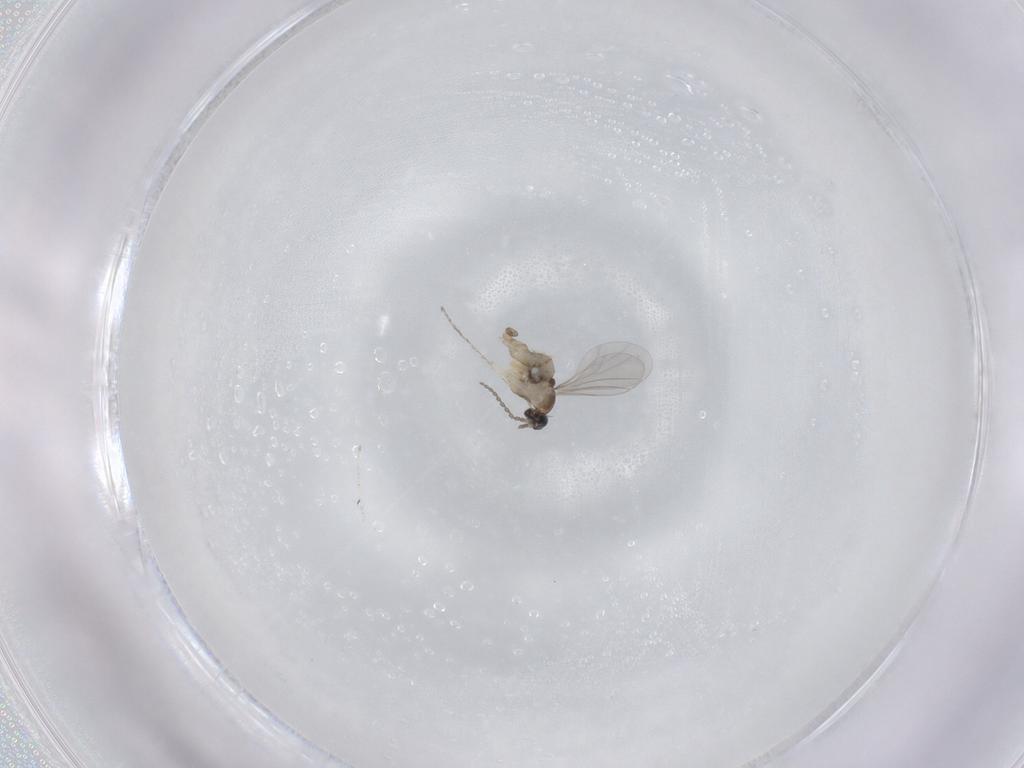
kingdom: Animalia
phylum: Arthropoda
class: Insecta
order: Diptera
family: Cecidomyiidae
